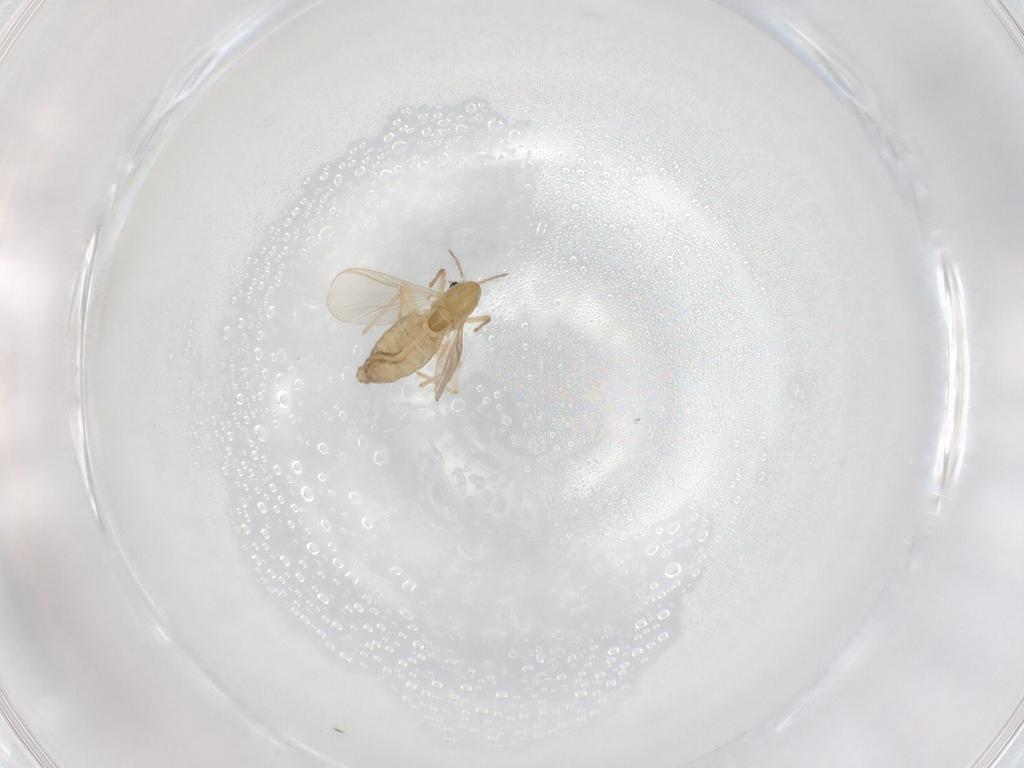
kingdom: Animalia
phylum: Arthropoda
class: Insecta
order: Diptera
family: Chironomidae
